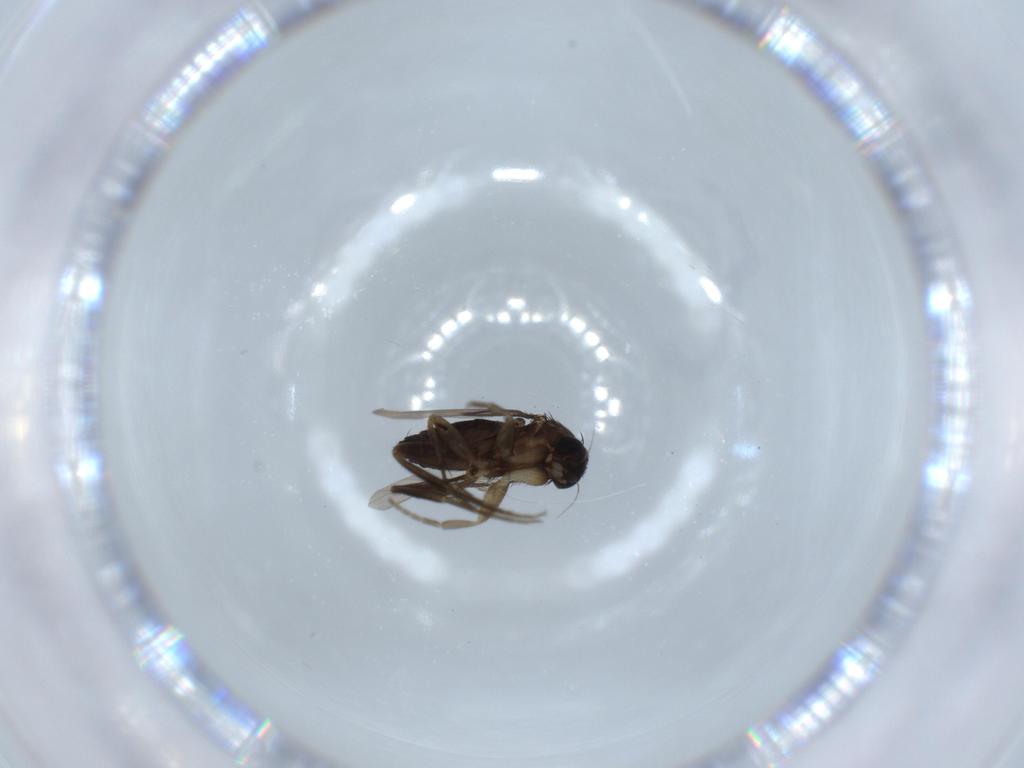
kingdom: Animalia
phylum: Arthropoda
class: Insecta
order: Diptera
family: Phoridae
